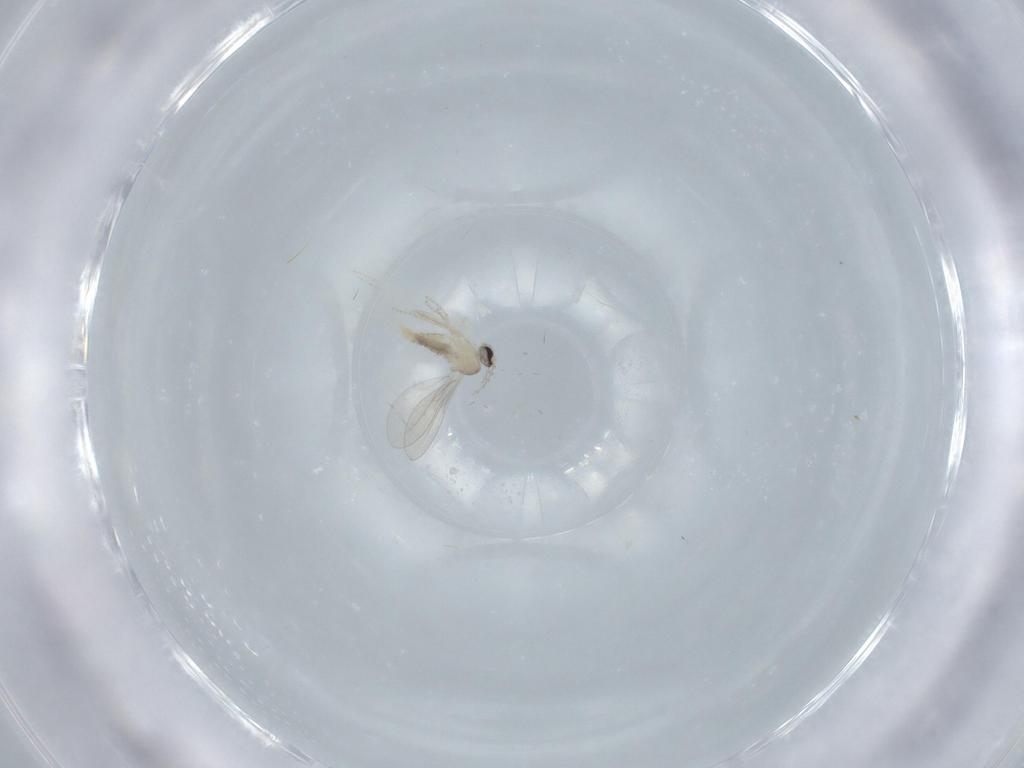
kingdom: Animalia
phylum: Arthropoda
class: Insecta
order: Diptera
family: Cecidomyiidae
